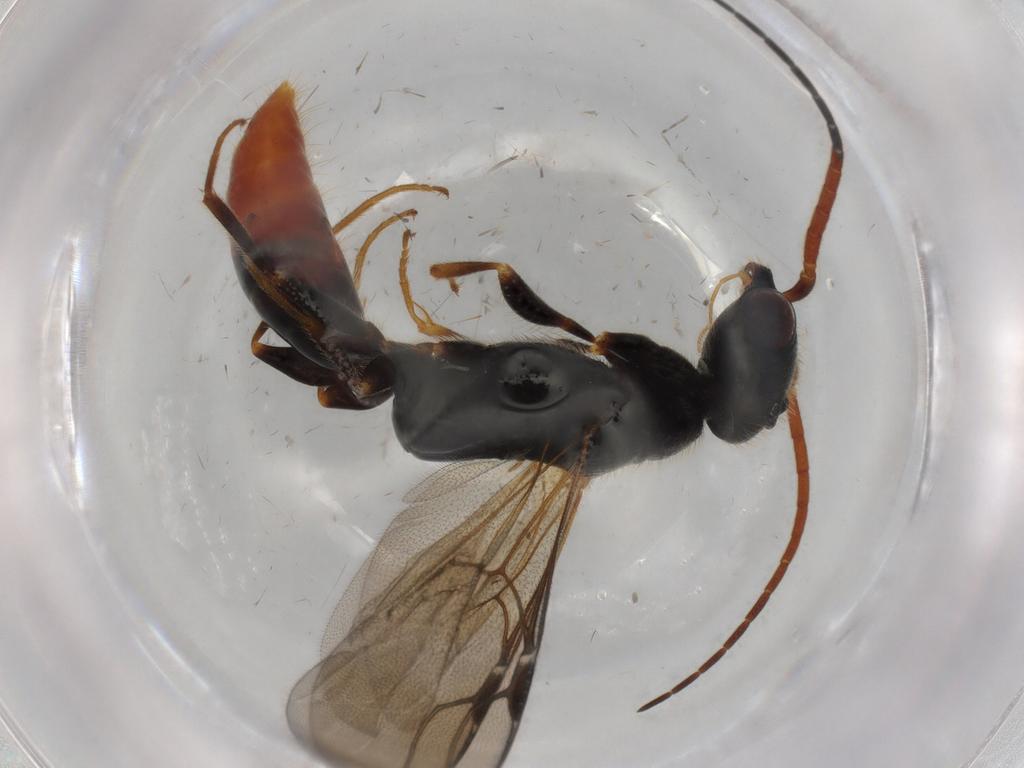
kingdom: Animalia
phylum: Arthropoda
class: Insecta
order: Hymenoptera
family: Bethylidae
